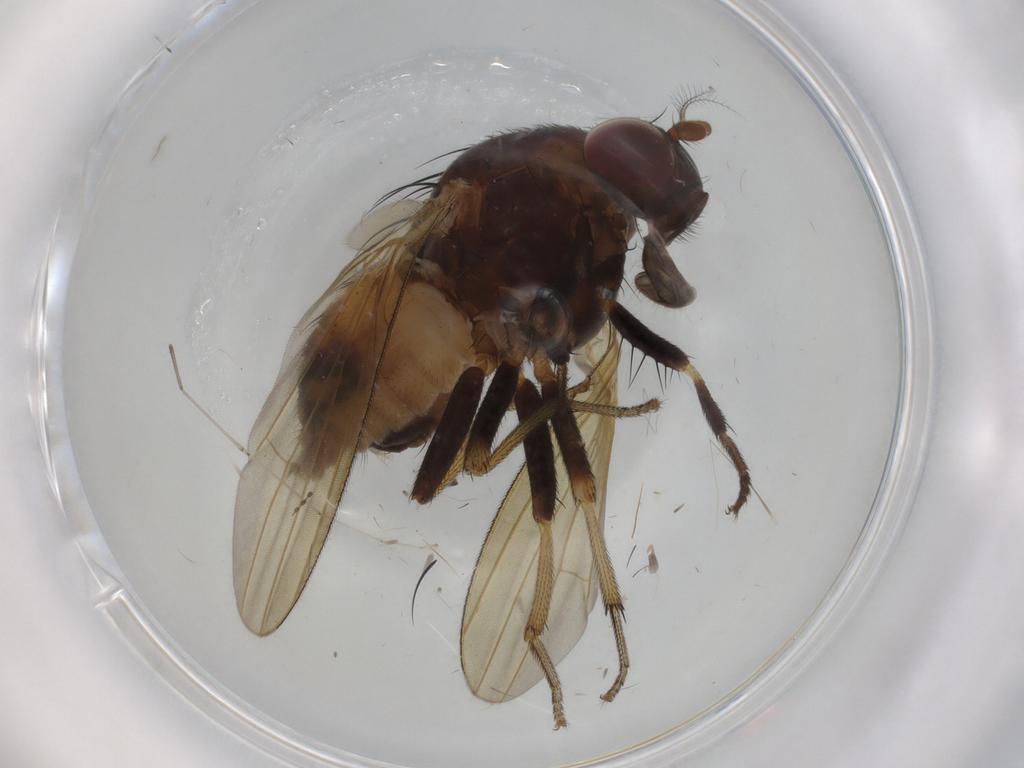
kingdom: Animalia
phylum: Arthropoda
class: Insecta
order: Diptera
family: Lauxaniidae
